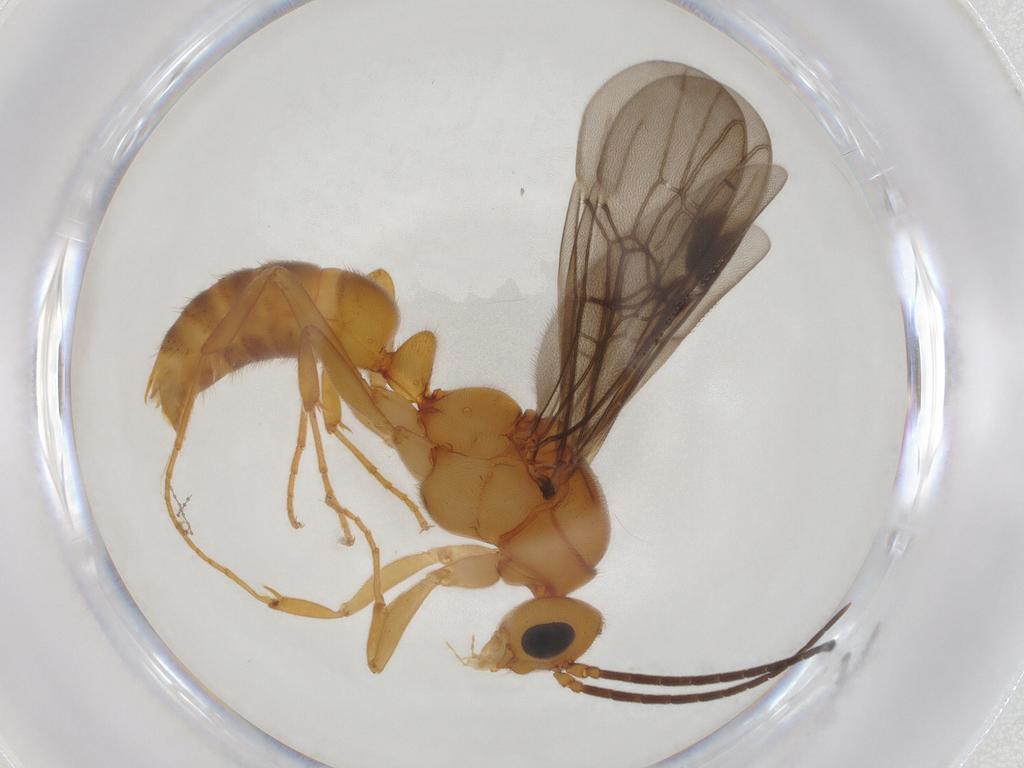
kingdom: Animalia
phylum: Arthropoda
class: Insecta
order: Hymenoptera
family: Formicidae
